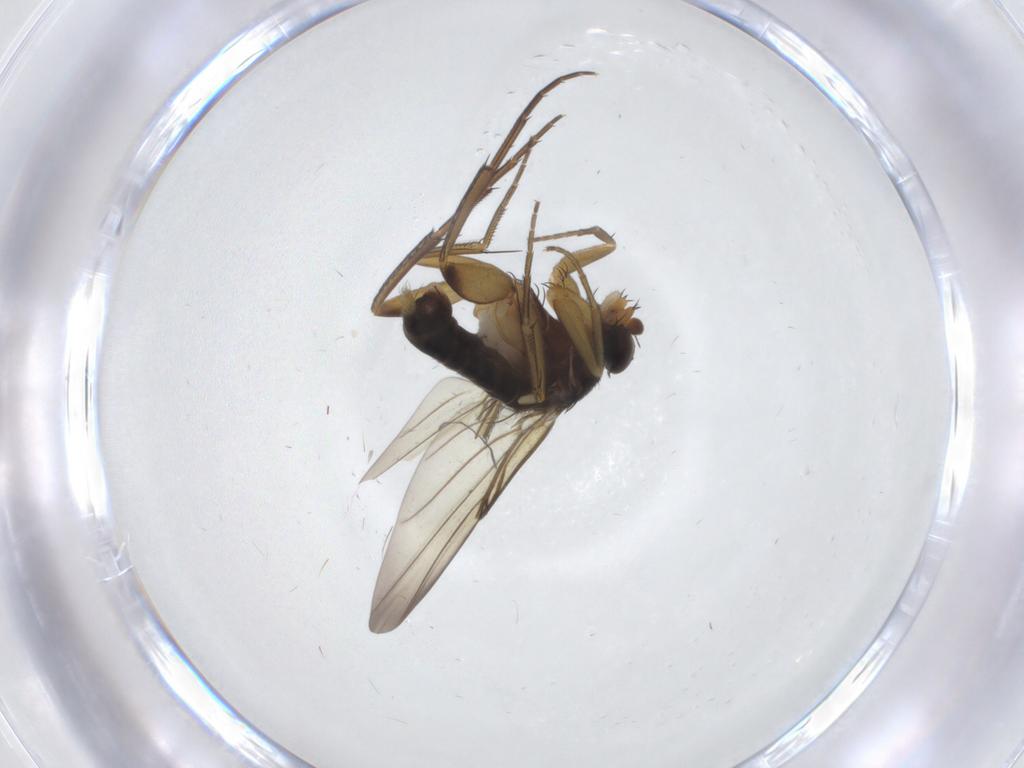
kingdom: Animalia
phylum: Arthropoda
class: Insecta
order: Diptera
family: Phoridae
